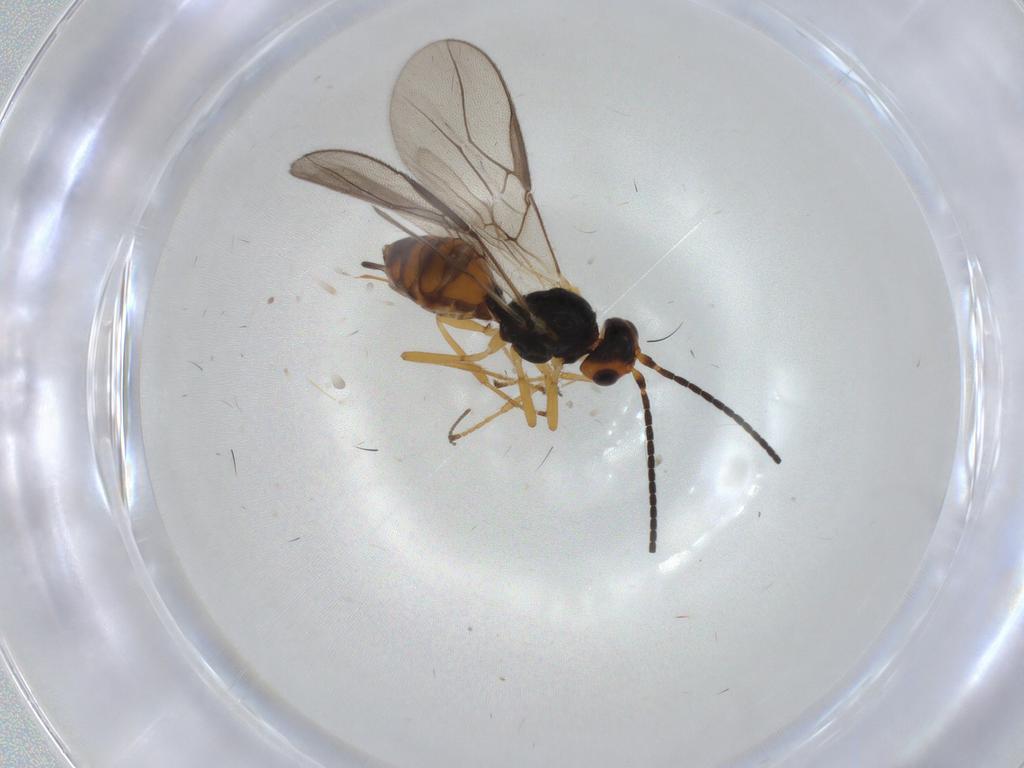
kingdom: Animalia
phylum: Arthropoda
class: Insecta
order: Hymenoptera
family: Braconidae
